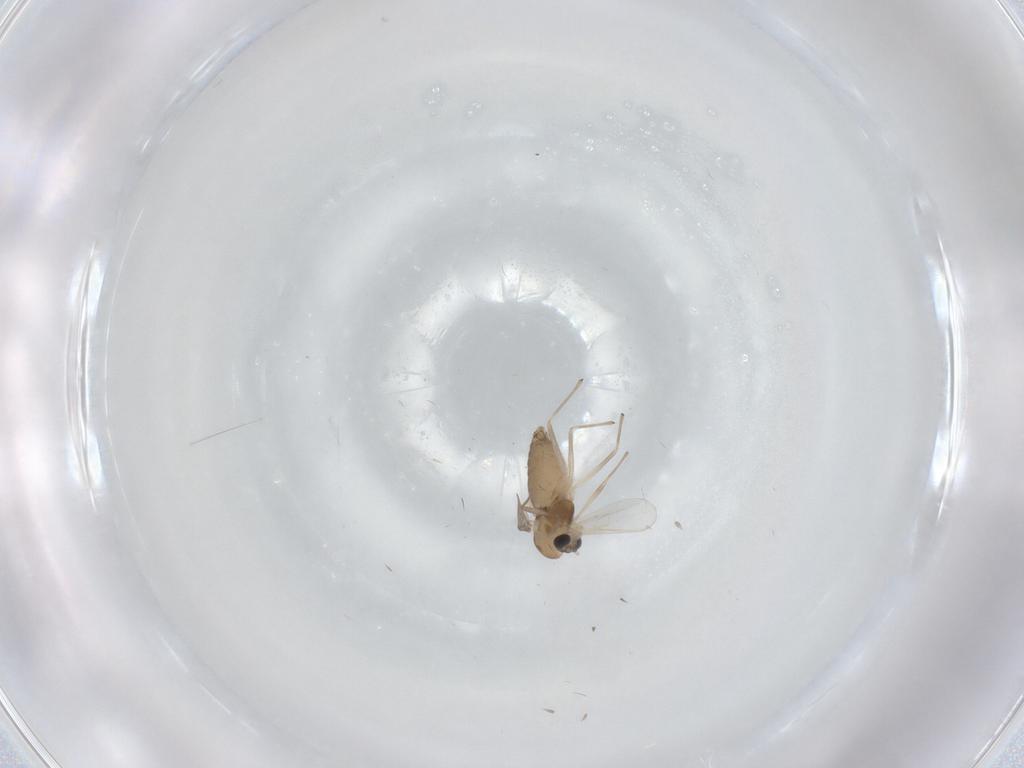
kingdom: Animalia
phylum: Arthropoda
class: Insecta
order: Diptera
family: Chironomidae
